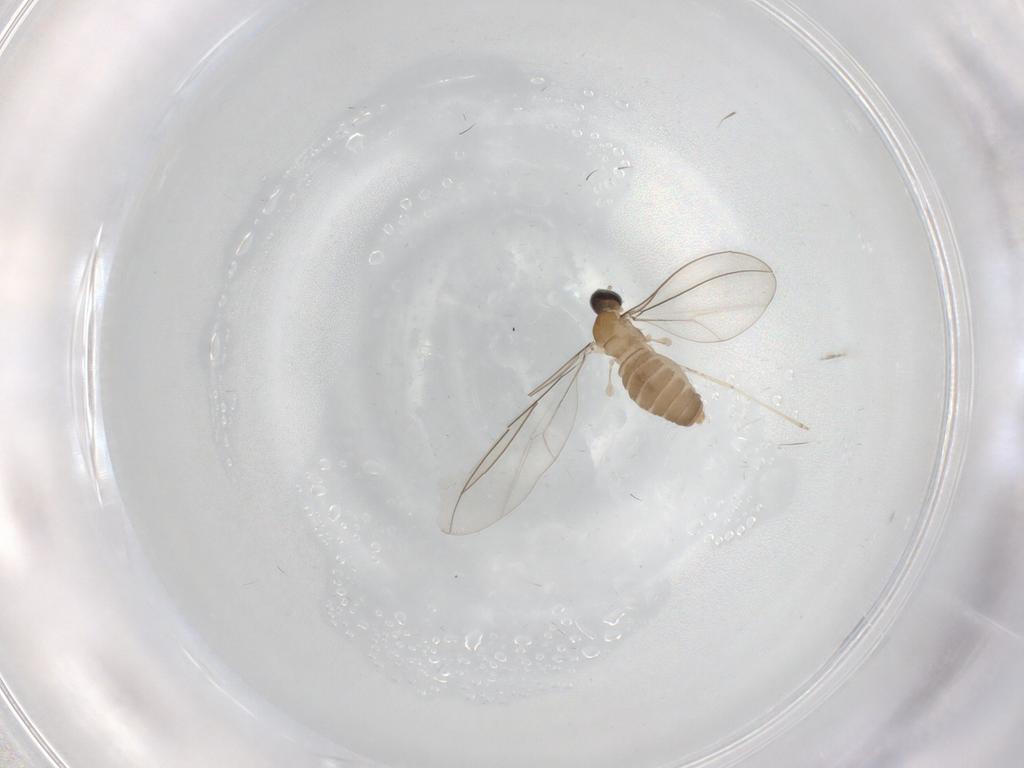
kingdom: Animalia
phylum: Arthropoda
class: Insecta
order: Diptera
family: Cecidomyiidae
